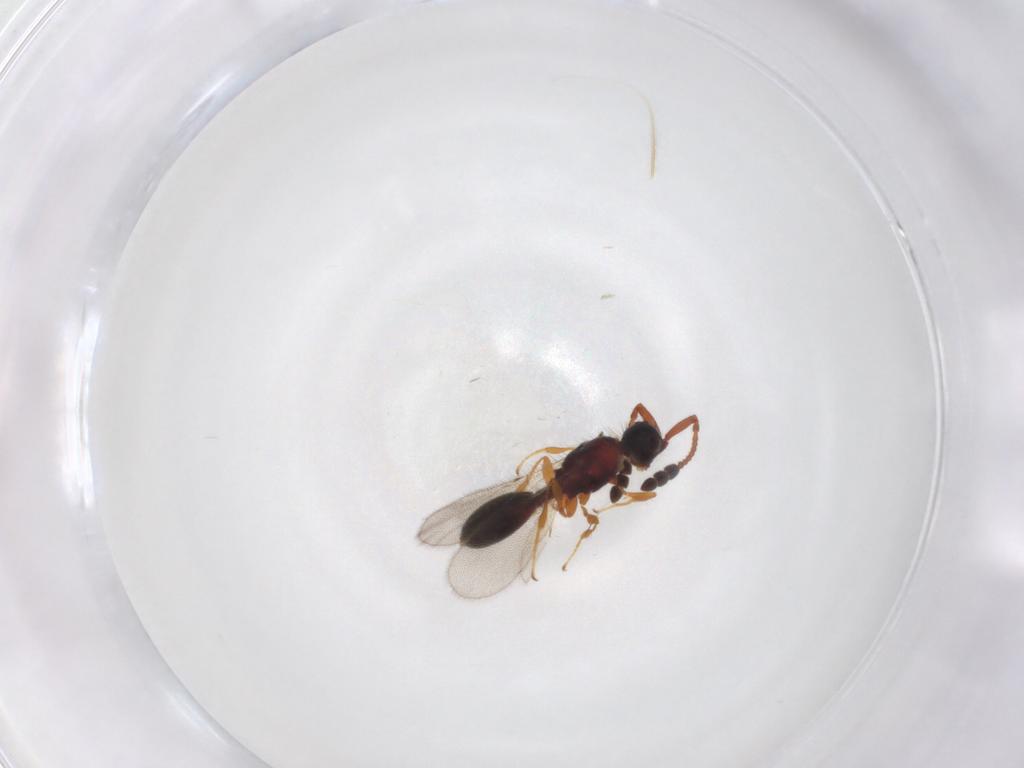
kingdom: Animalia
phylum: Arthropoda
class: Insecta
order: Hymenoptera
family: Diapriidae
